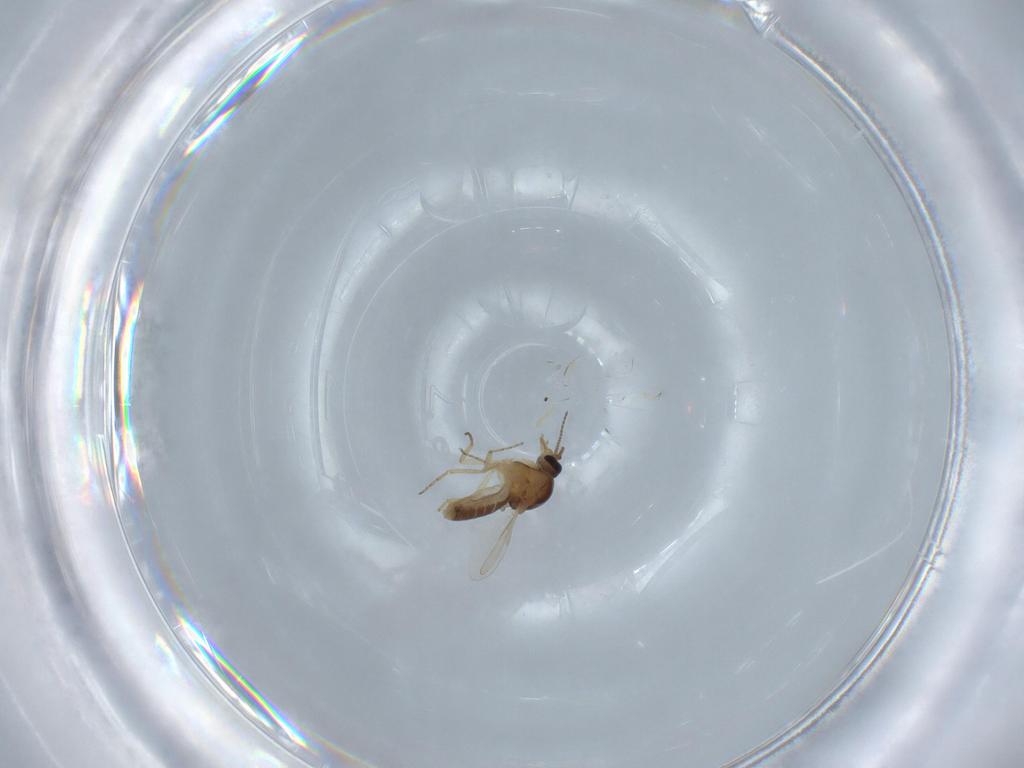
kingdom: Animalia
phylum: Arthropoda
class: Insecta
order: Diptera
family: Ceratopogonidae
